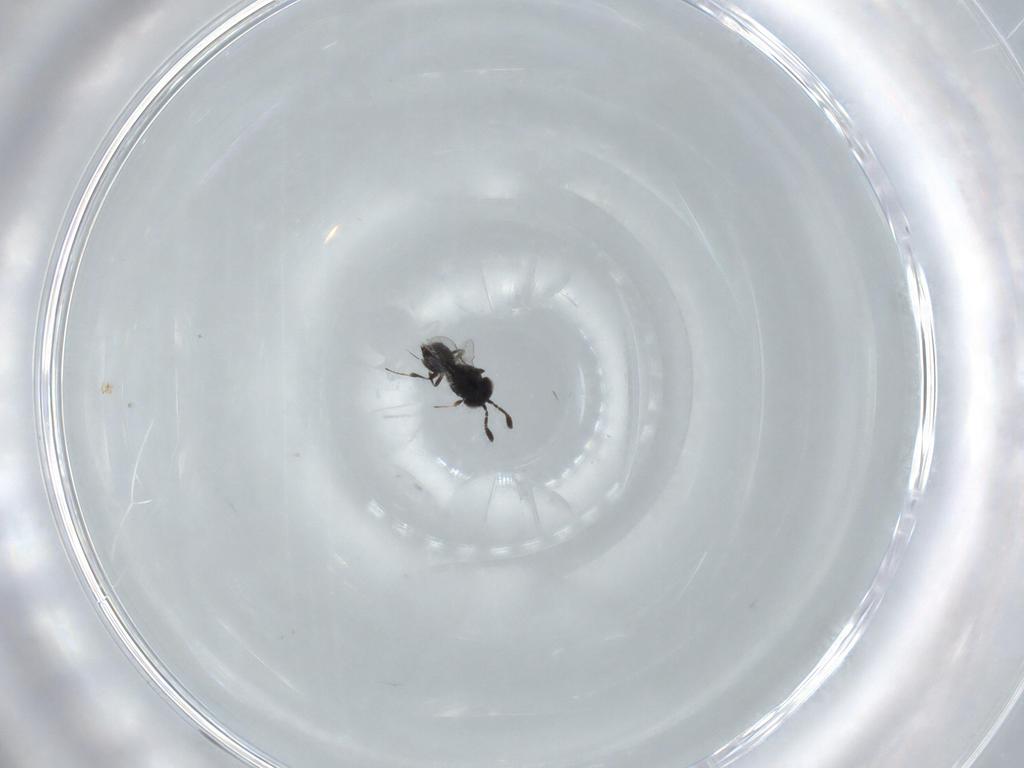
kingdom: Animalia
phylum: Arthropoda
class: Insecta
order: Hymenoptera
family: Scelionidae
